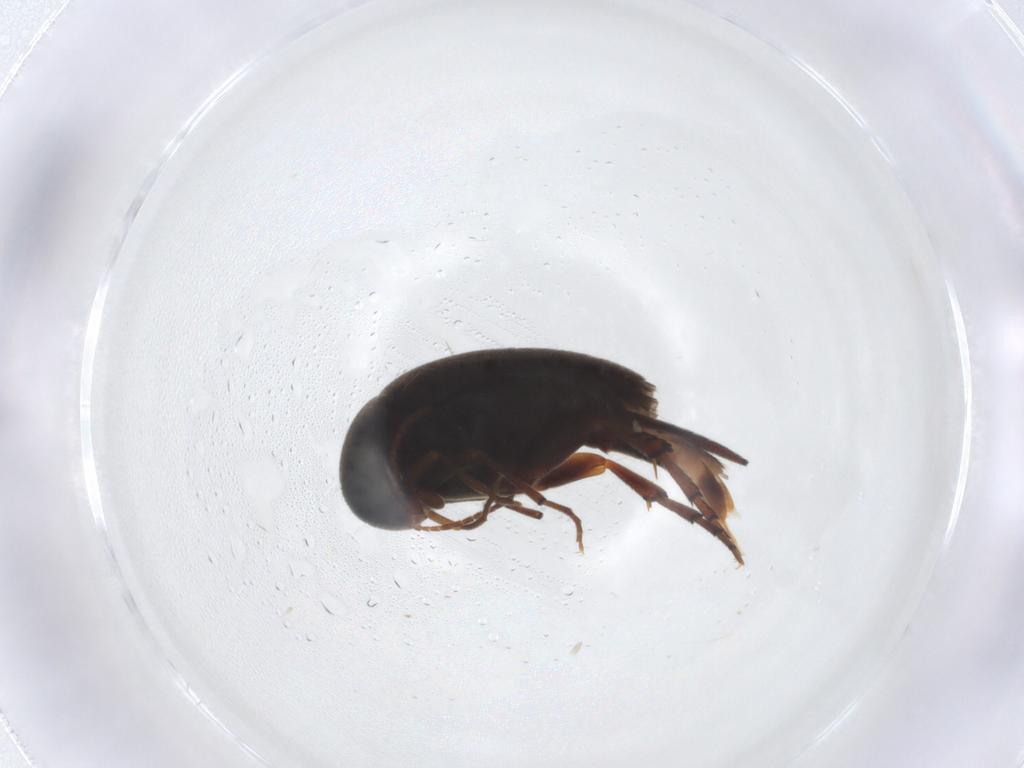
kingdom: Animalia
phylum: Arthropoda
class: Insecta
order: Coleoptera
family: Mordellidae
